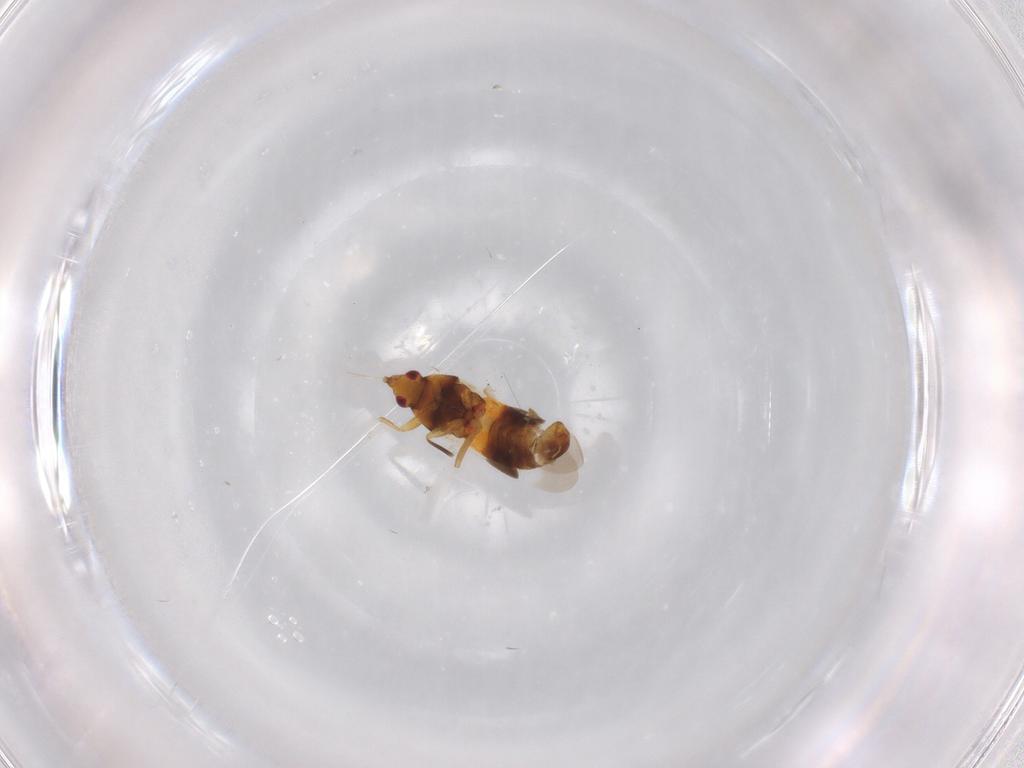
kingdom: Animalia
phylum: Arthropoda
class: Insecta
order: Hemiptera
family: Anthocoridae
